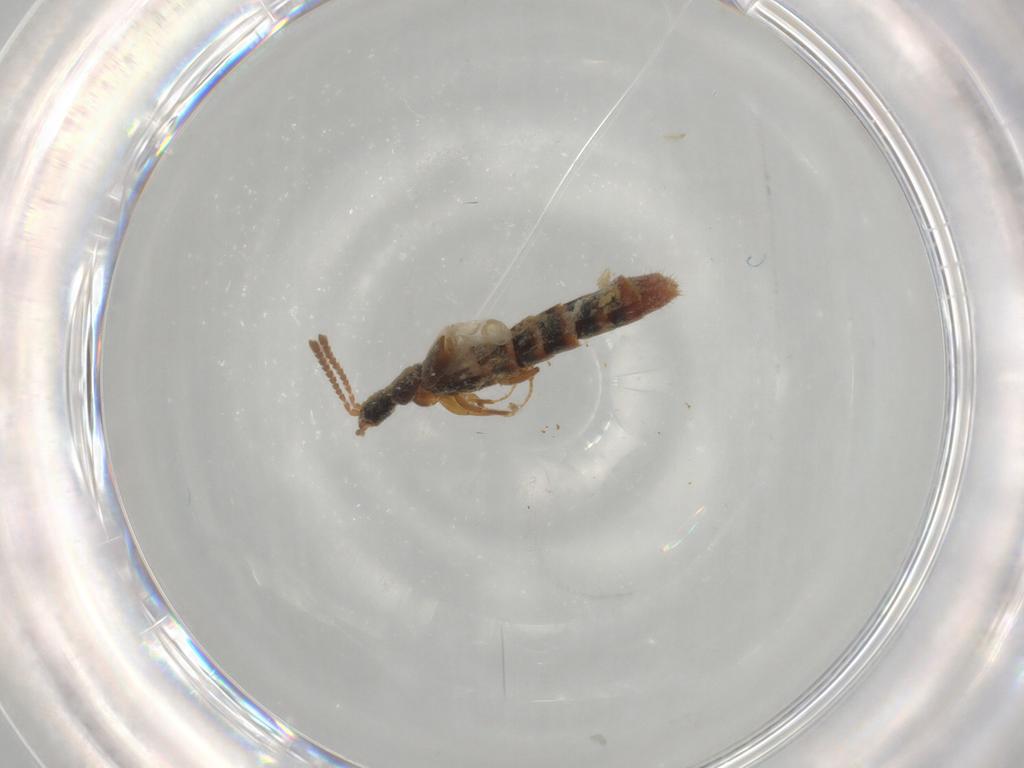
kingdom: Animalia
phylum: Arthropoda
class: Insecta
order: Coleoptera
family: Staphylinidae
